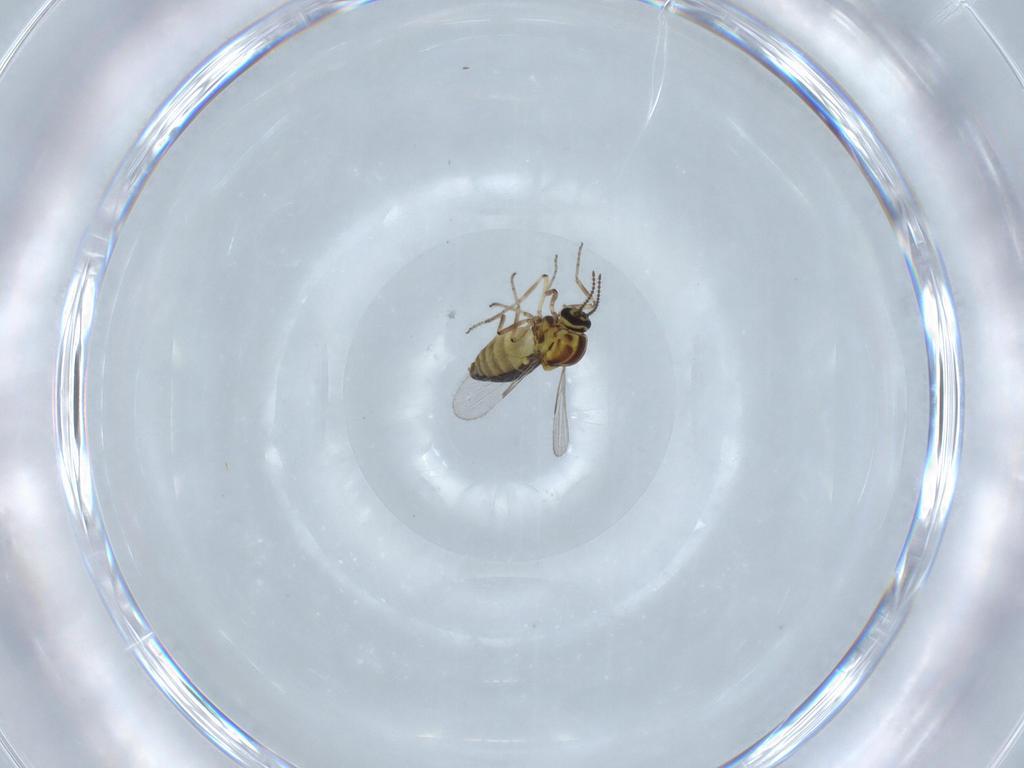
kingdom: Animalia
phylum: Arthropoda
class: Insecta
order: Diptera
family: Ceratopogonidae
